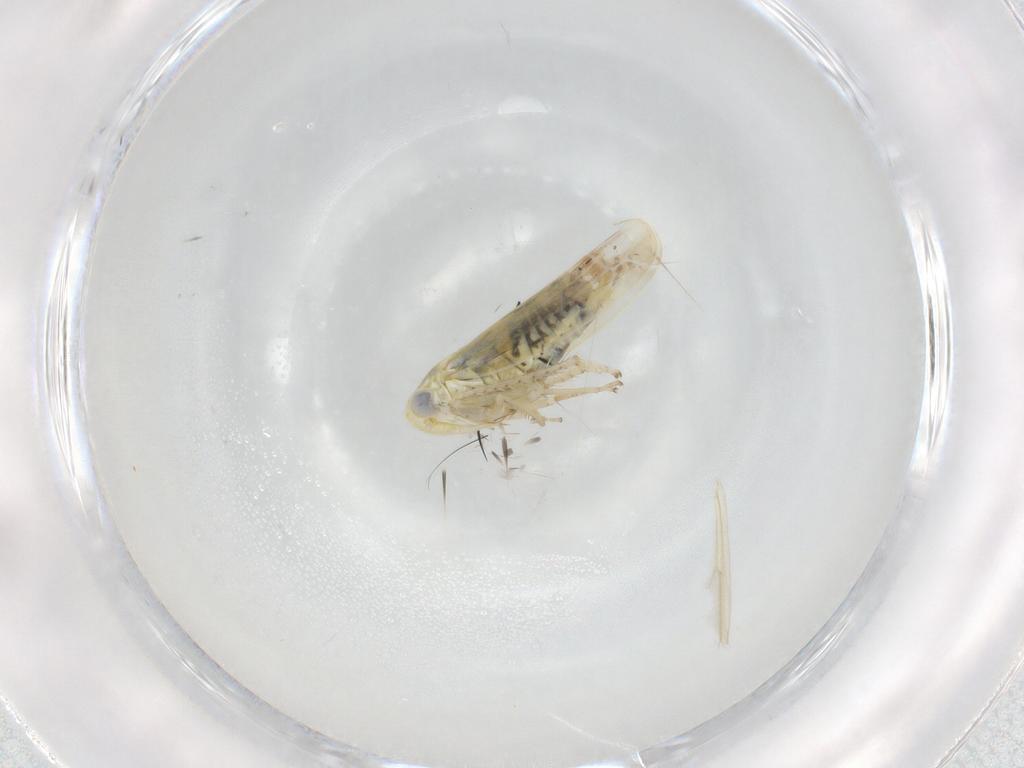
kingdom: Animalia
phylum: Arthropoda
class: Insecta
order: Hemiptera
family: Cicadellidae
